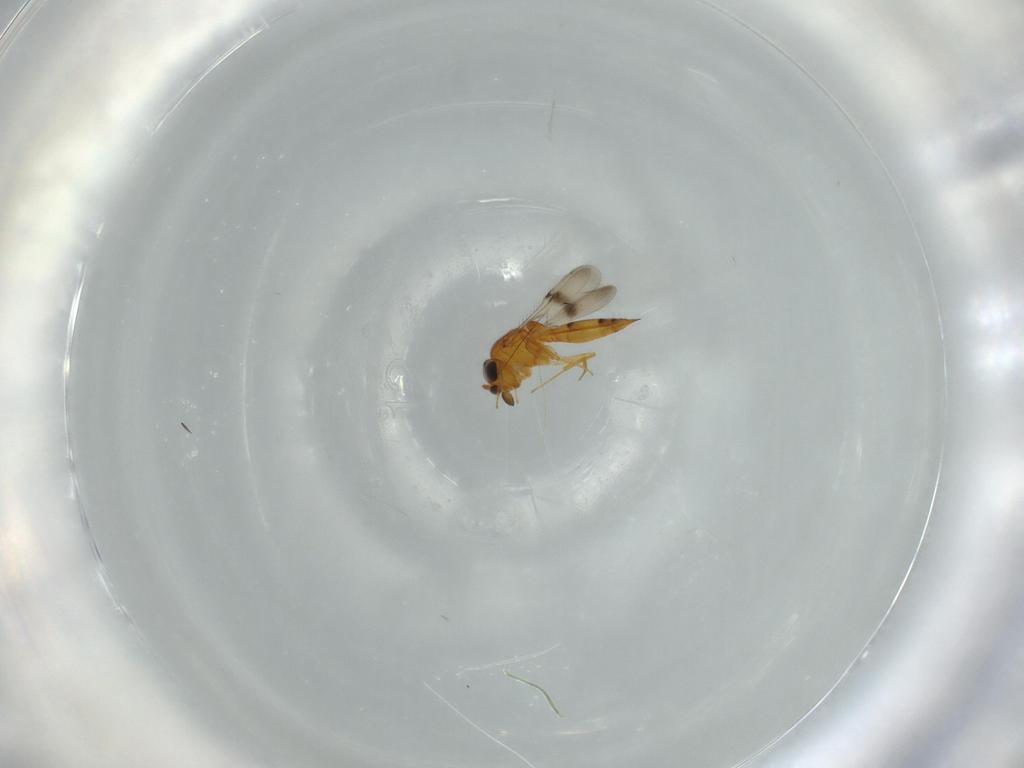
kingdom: Animalia
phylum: Arthropoda
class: Insecta
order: Hymenoptera
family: Scelionidae
